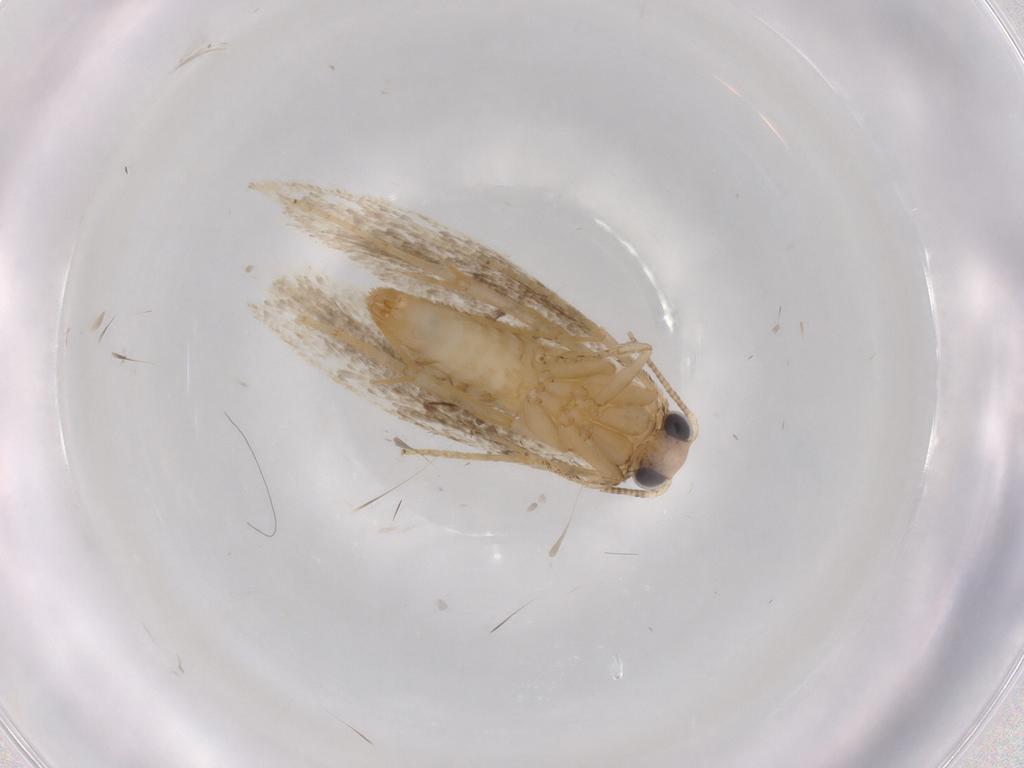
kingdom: Animalia
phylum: Arthropoda
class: Insecta
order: Lepidoptera
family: Tineidae
